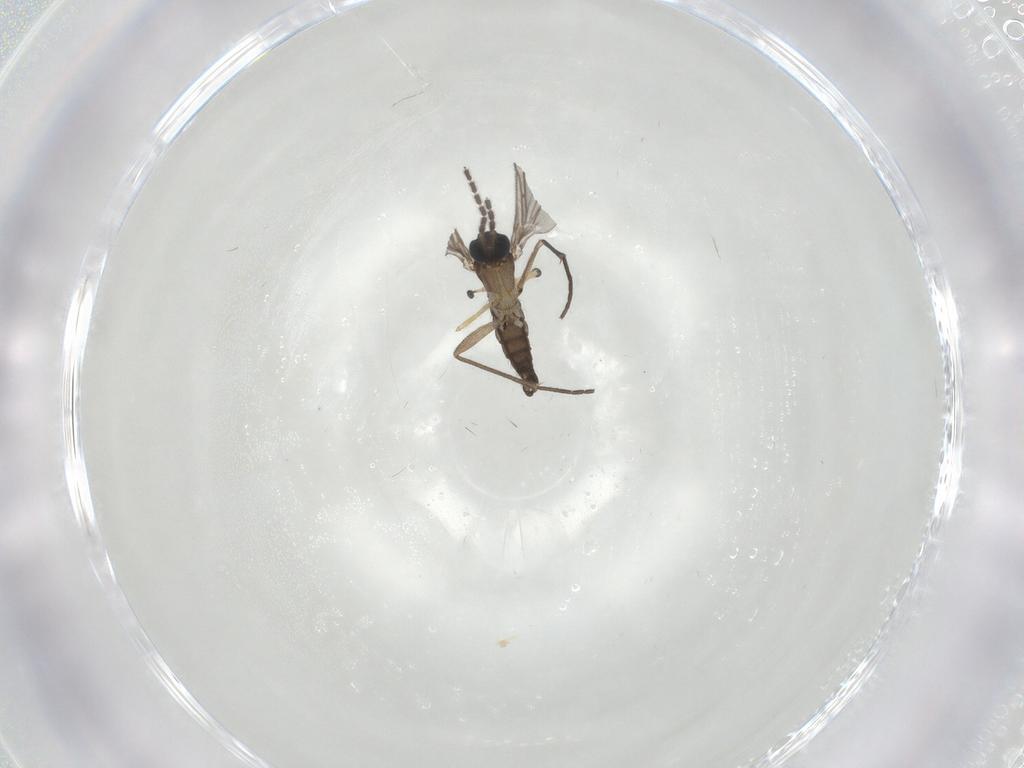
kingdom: Animalia
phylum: Arthropoda
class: Insecta
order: Diptera
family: Sciaridae
